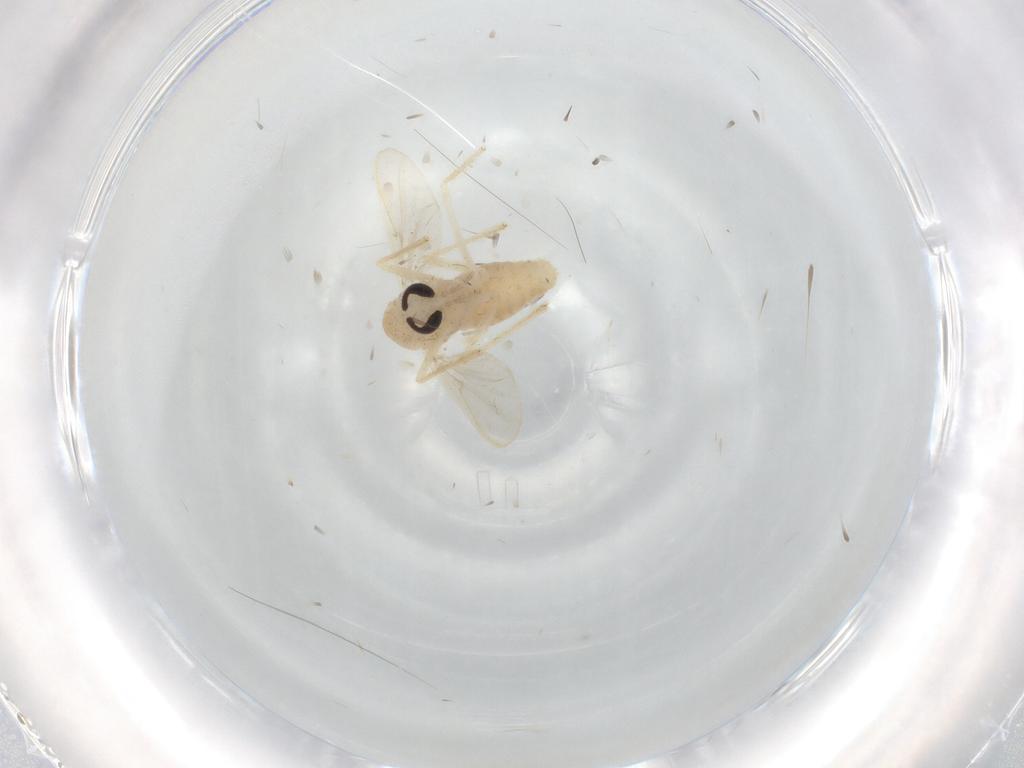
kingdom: Animalia
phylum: Arthropoda
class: Insecta
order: Diptera
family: Chironomidae
